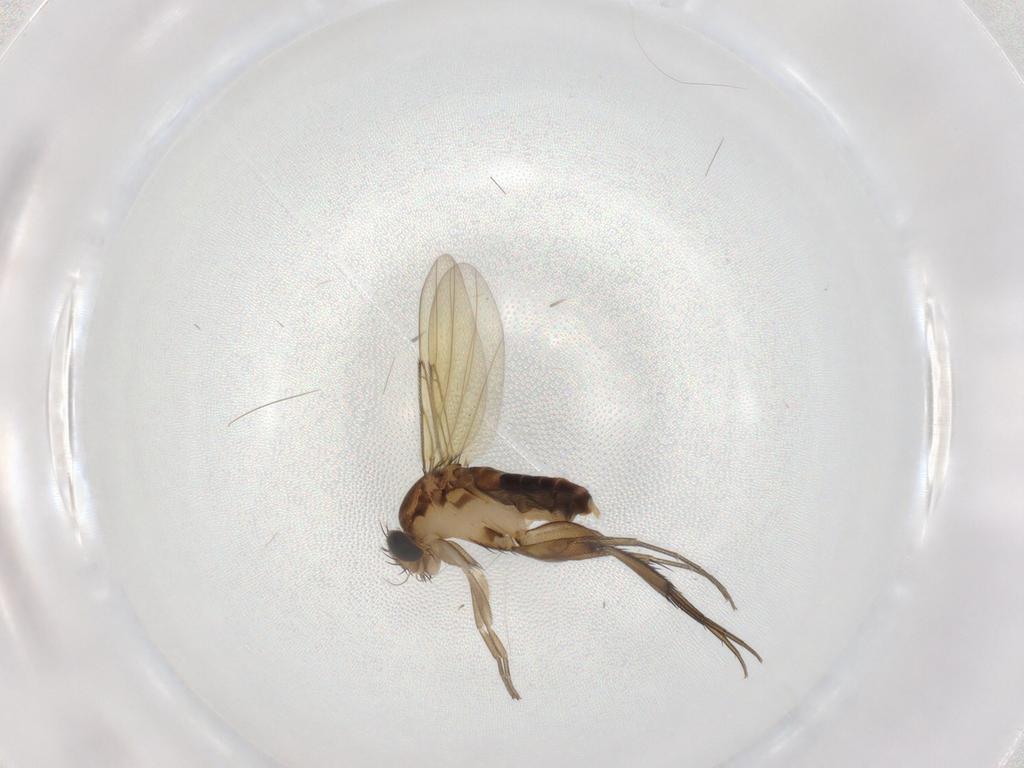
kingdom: Animalia
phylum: Arthropoda
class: Insecta
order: Diptera
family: Phoridae
